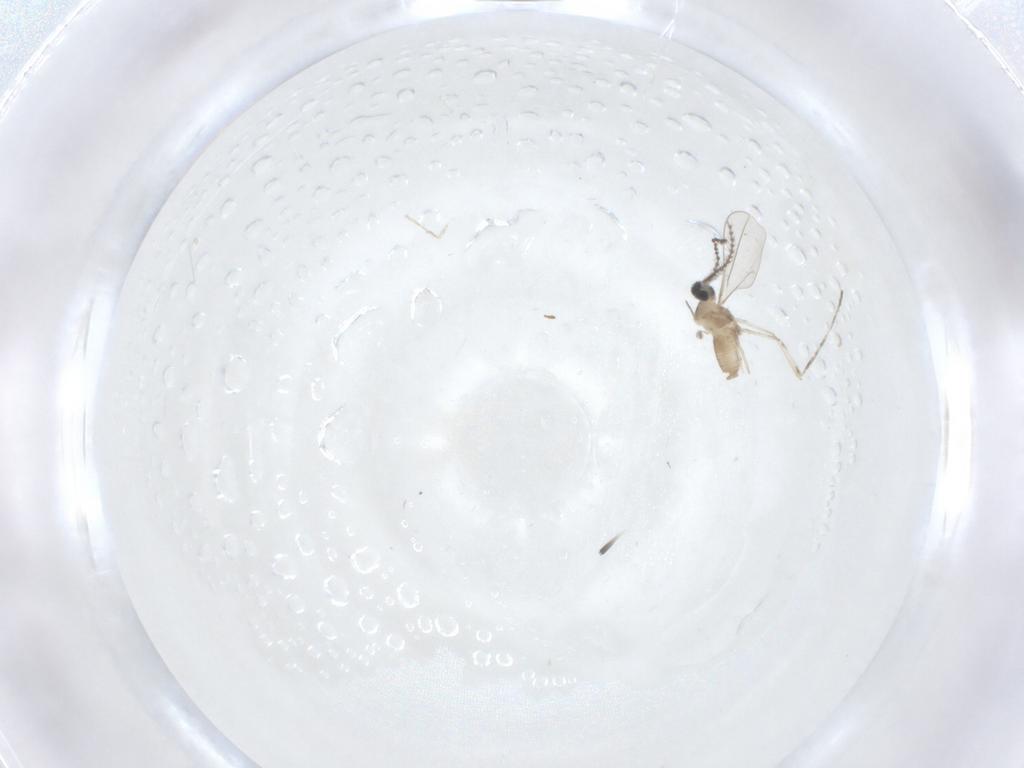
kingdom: Animalia
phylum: Arthropoda
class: Insecta
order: Diptera
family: Cecidomyiidae
